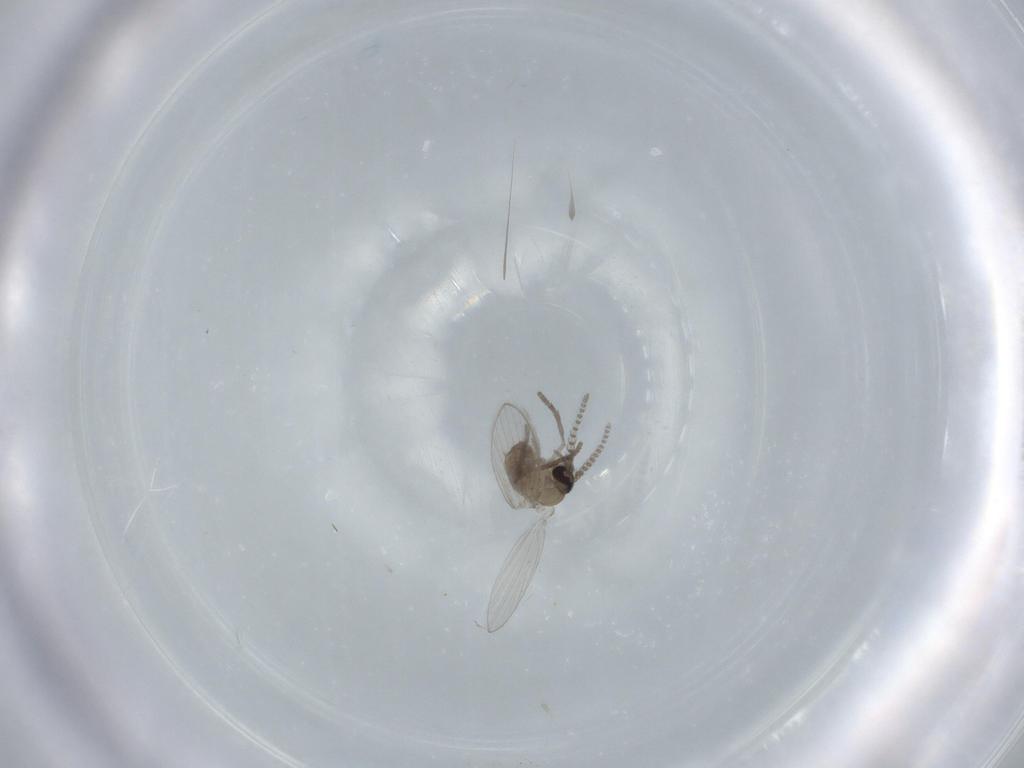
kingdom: Animalia
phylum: Arthropoda
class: Insecta
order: Diptera
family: Psychodidae
